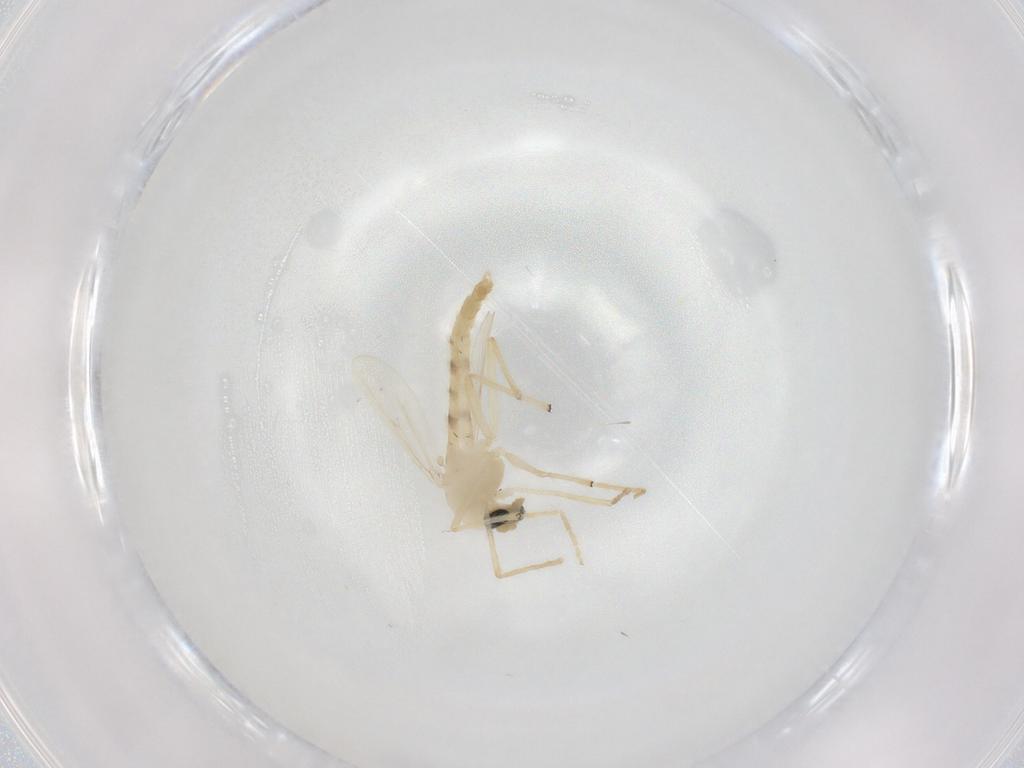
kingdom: Animalia
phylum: Arthropoda
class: Insecta
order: Diptera
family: Chironomidae
